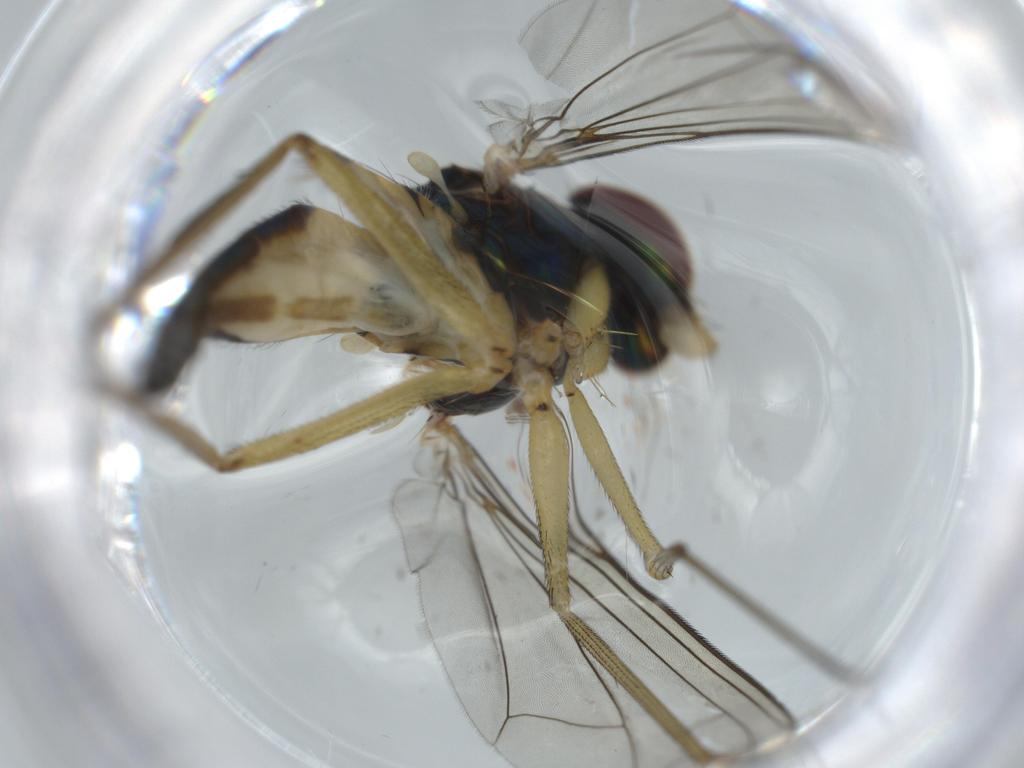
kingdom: Animalia
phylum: Arthropoda
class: Insecta
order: Diptera
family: Dolichopodidae
